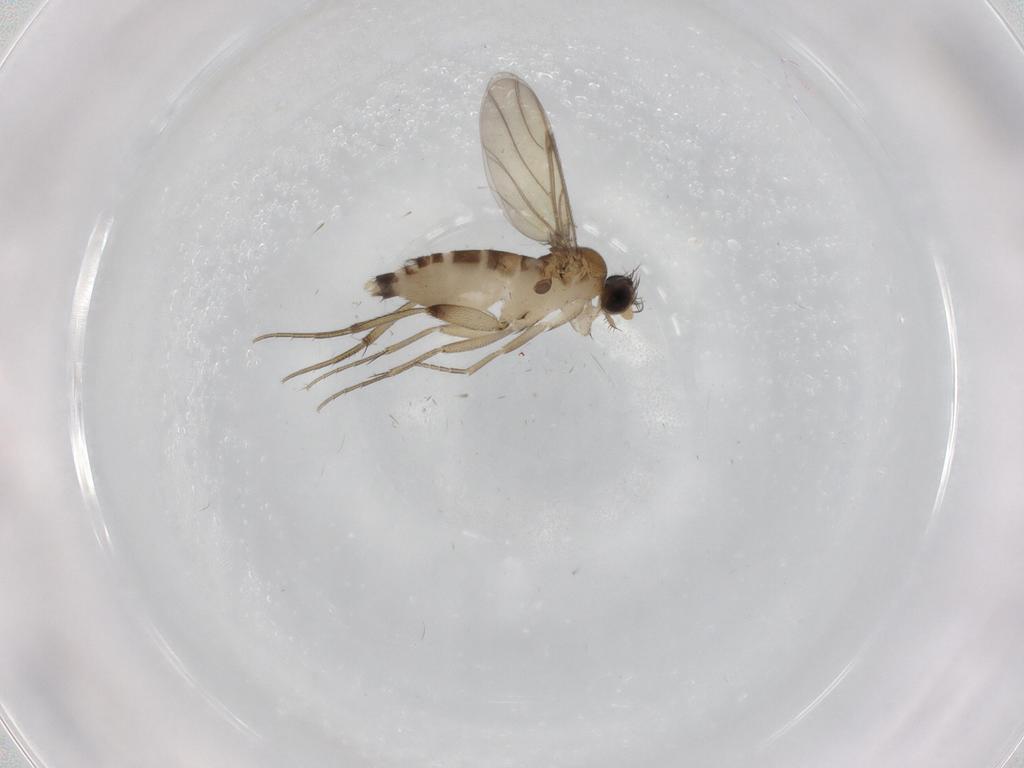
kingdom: Animalia
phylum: Arthropoda
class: Insecta
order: Diptera
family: Phoridae
